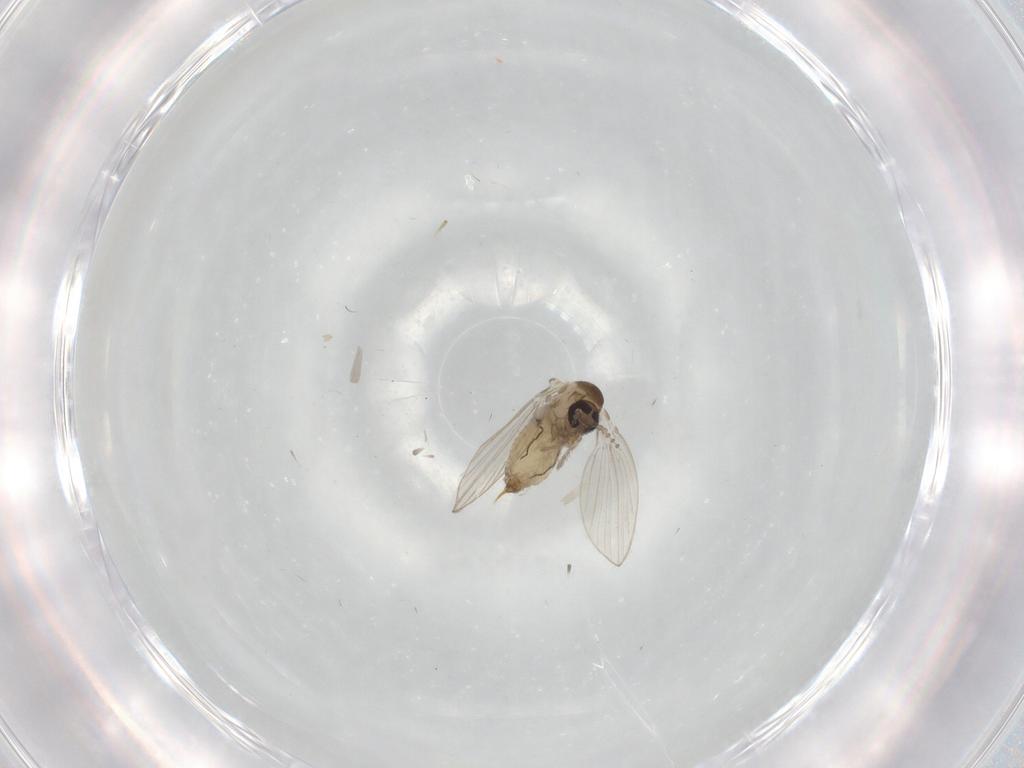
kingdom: Animalia
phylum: Arthropoda
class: Insecta
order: Diptera
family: Psychodidae
